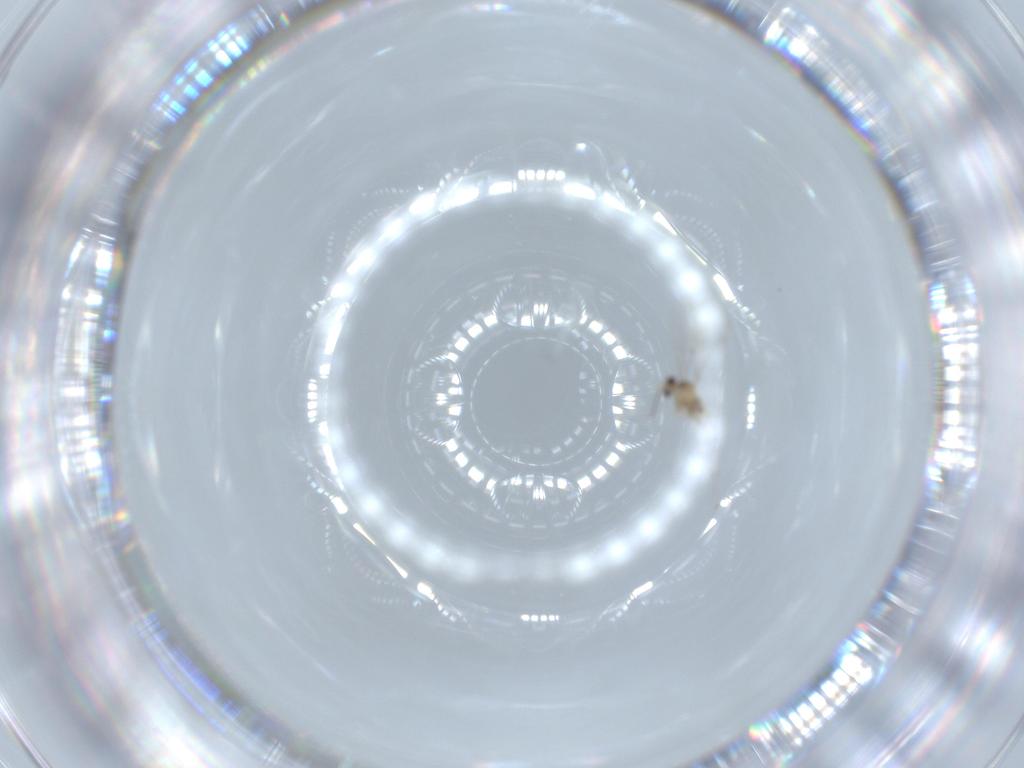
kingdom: Animalia
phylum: Arthropoda
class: Insecta
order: Diptera
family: Cecidomyiidae
